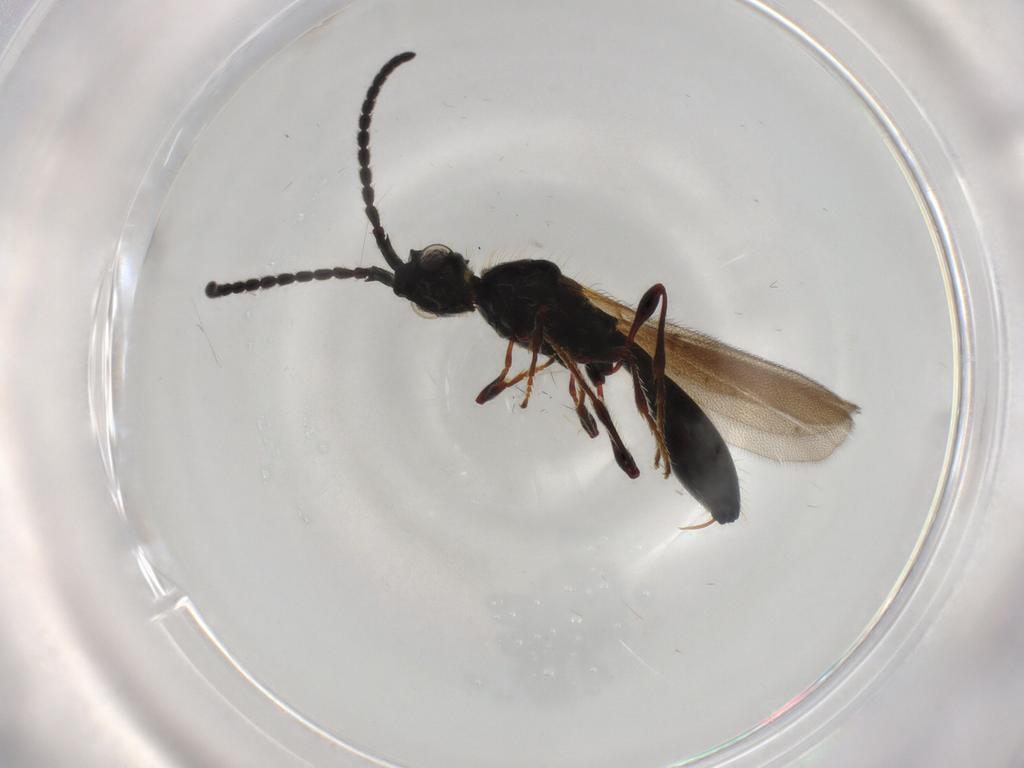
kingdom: Animalia
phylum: Arthropoda
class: Insecta
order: Hymenoptera
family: Diapriidae
